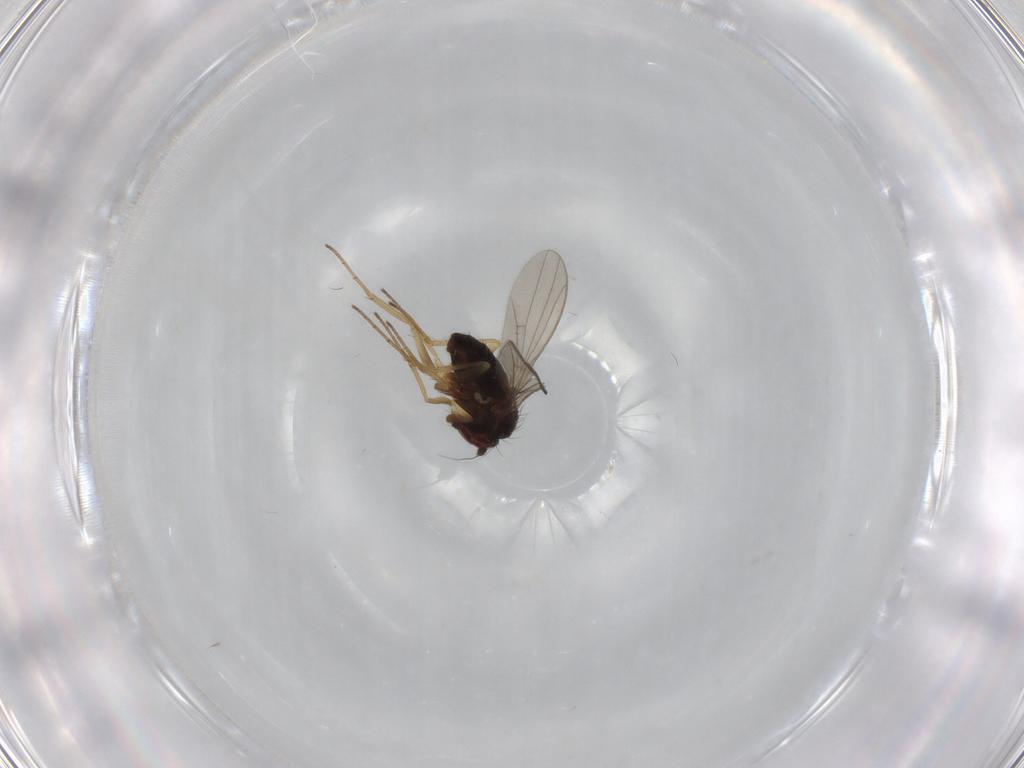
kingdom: Animalia
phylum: Arthropoda
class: Insecta
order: Diptera
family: Dolichopodidae
